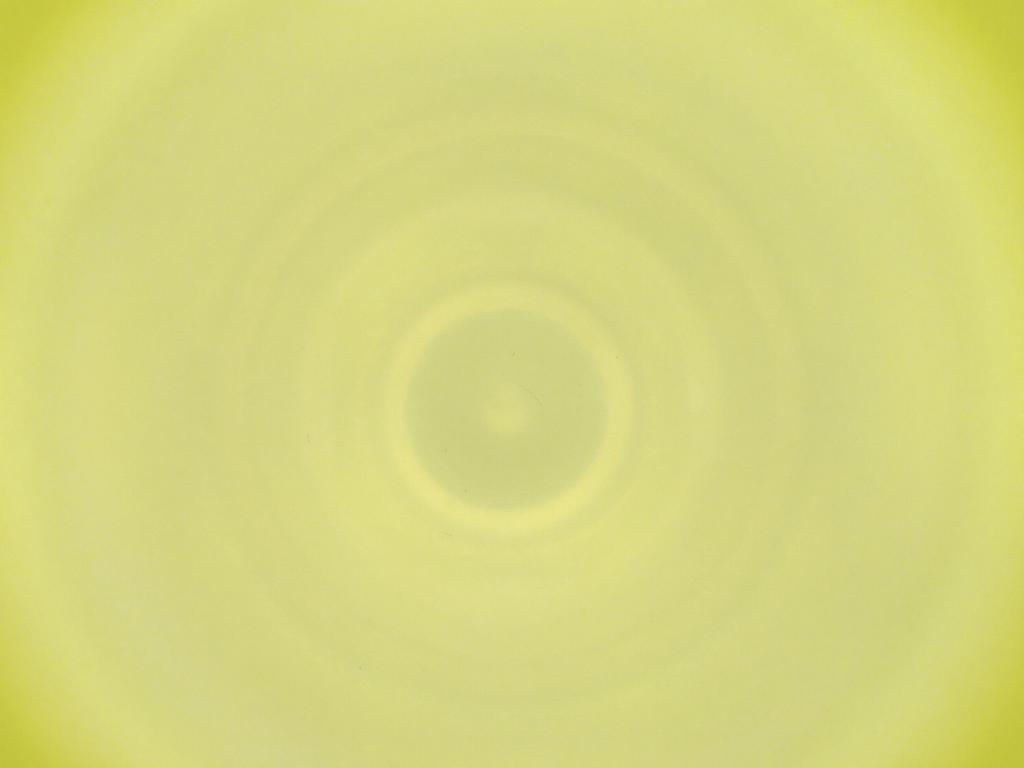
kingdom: Animalia
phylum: Arthropoda
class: Insecta
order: Diptera
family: Cecidomyiidae
